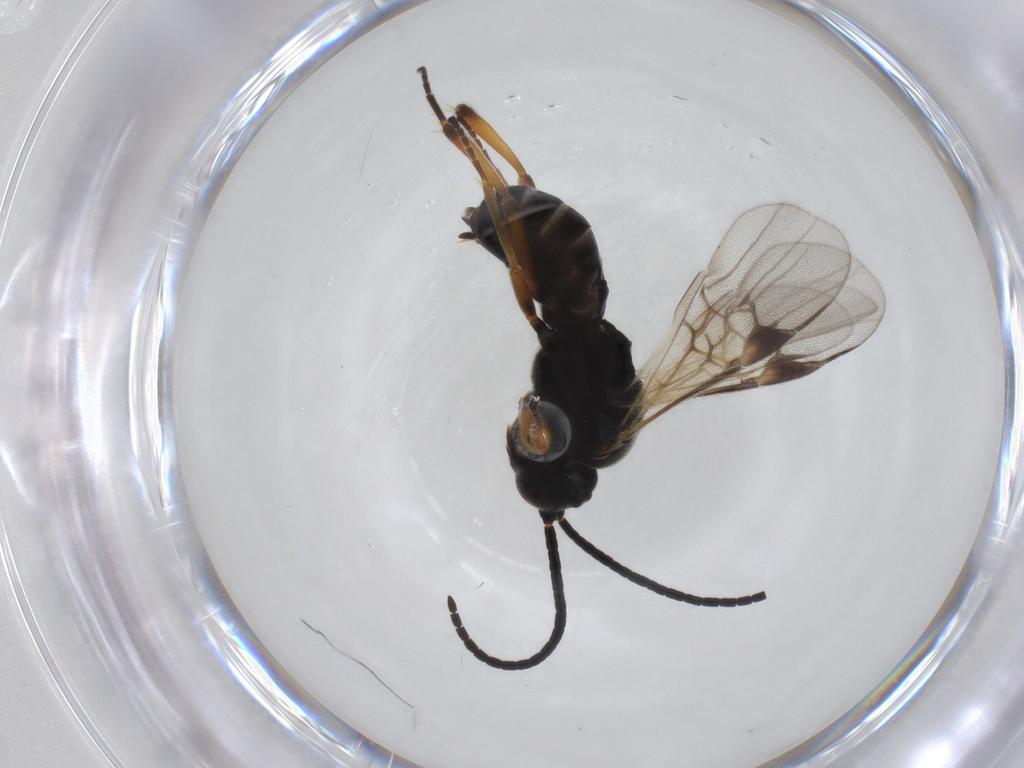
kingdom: Animalia
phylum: Arthropoda
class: Insecta
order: Hymenoptera
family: Braconidae
